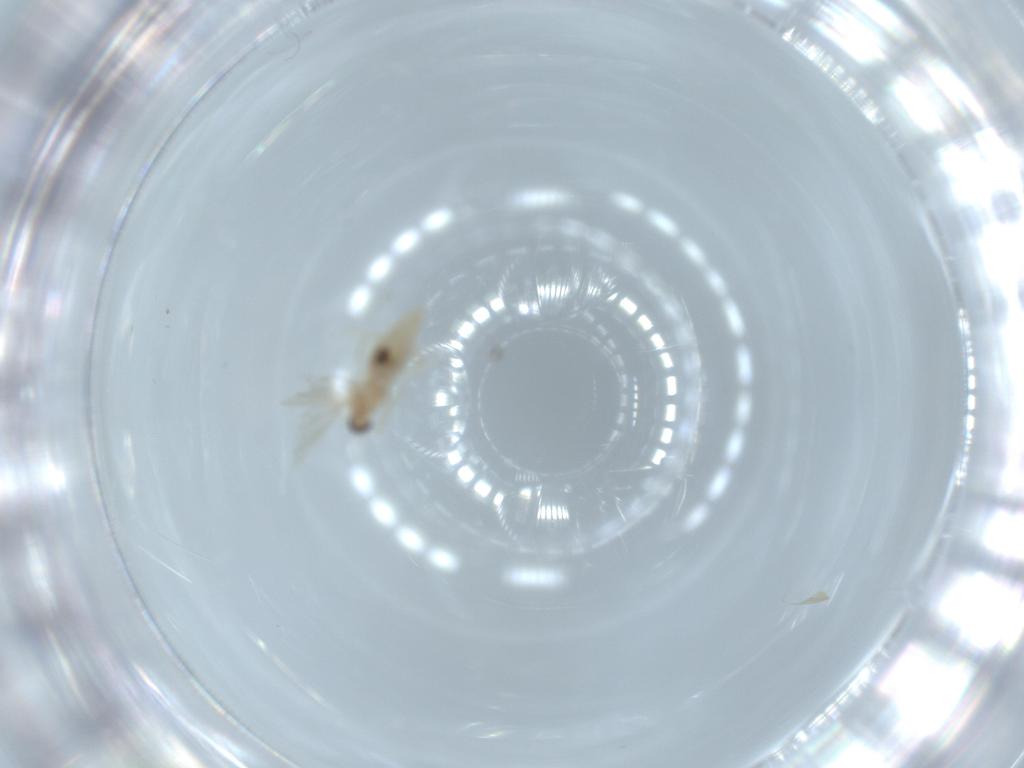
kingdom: Animalia
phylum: Arthropoda
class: Insecta
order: Diptera
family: Cecidomyiidae
